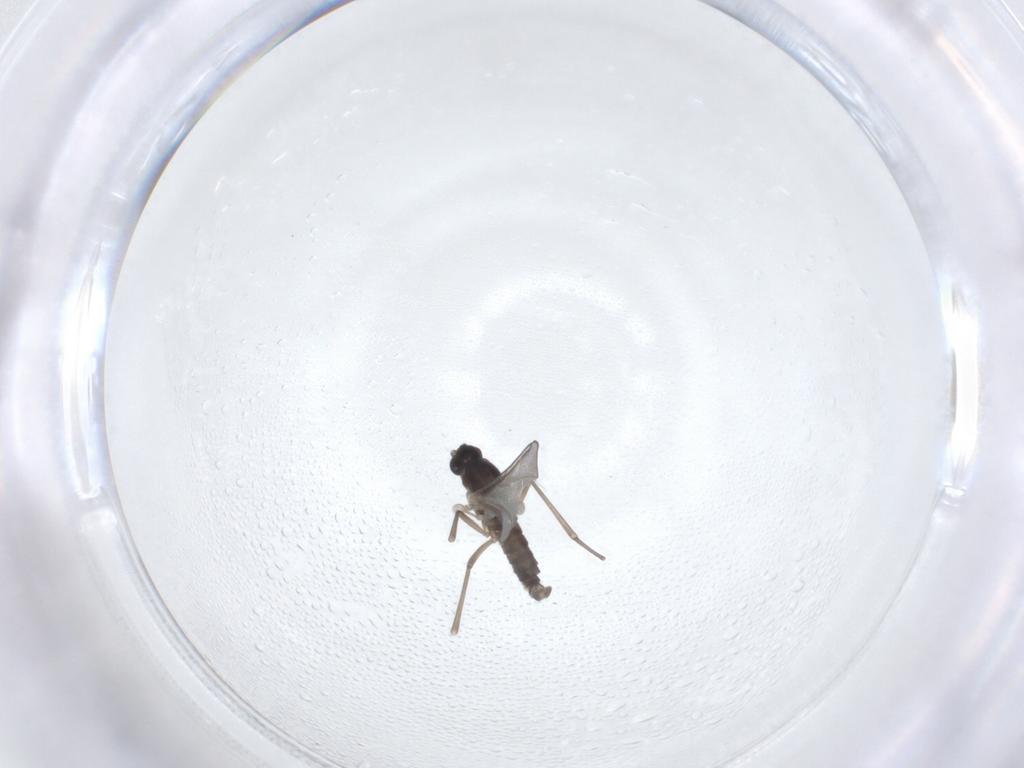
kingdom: Animalia
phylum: Arthropoda
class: Insecta
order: Diptera
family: Cecidomyiidae
